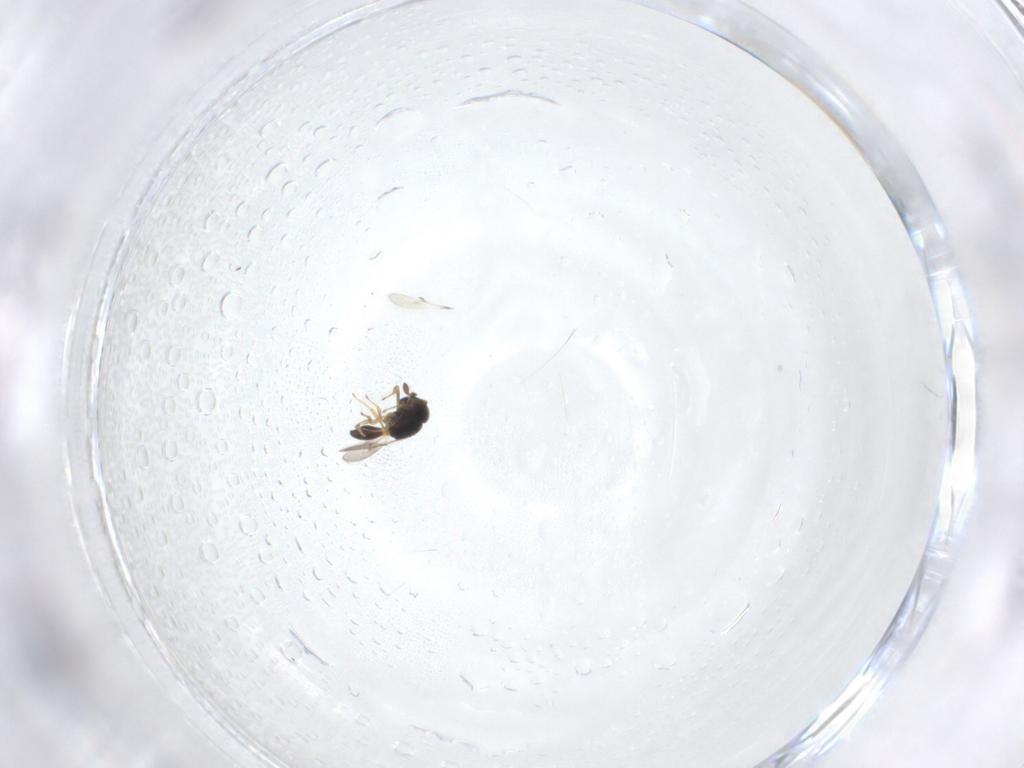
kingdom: Animalia
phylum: Arthropoda
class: Insecta
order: Hymenoptera
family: Scelionidae
